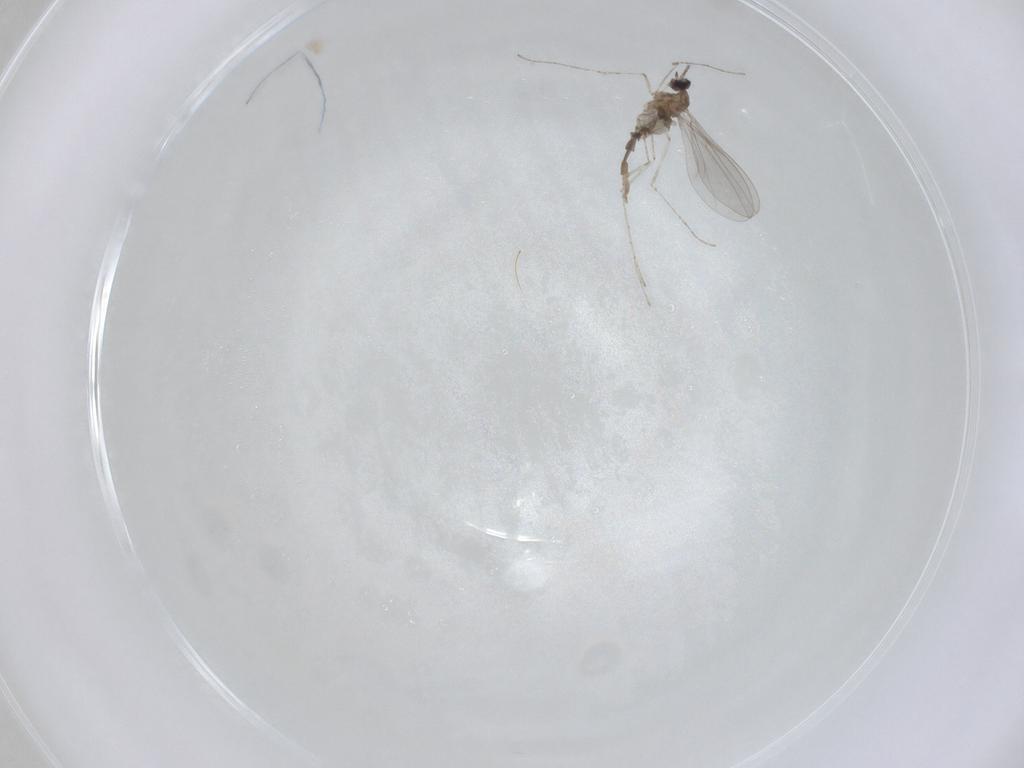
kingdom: Animalia
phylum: Arthropoda
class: Insecta
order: Diptera
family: Cecidomyiidae
